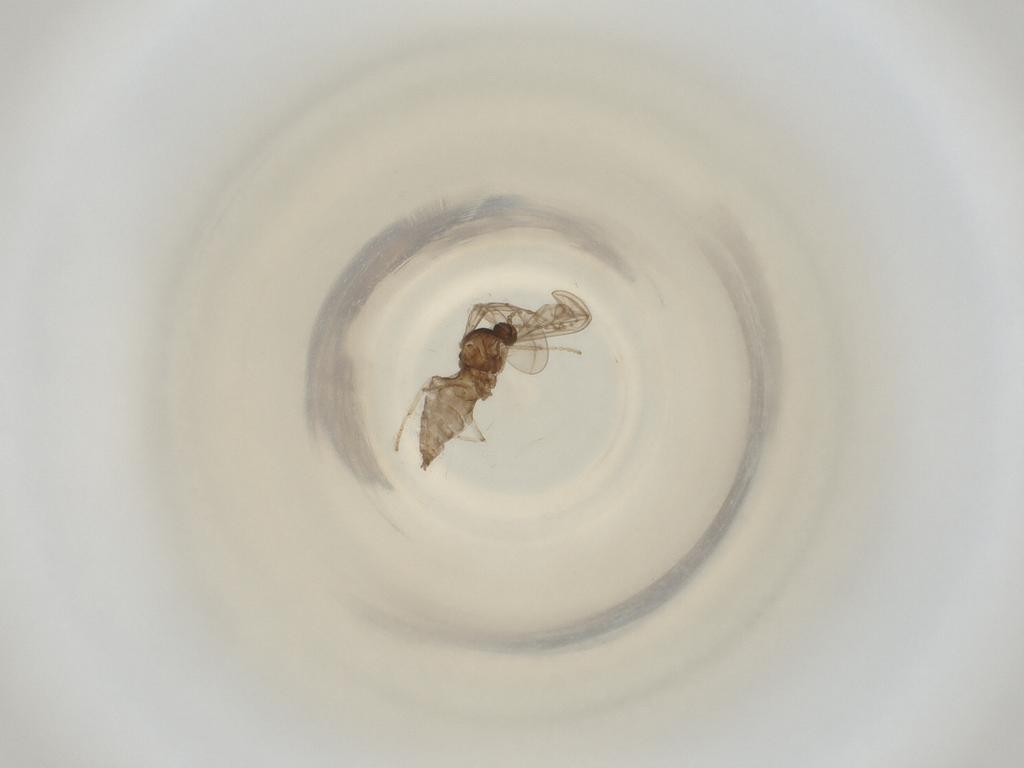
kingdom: Animalia
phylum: Arthropoda
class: Insecta
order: Diptera
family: Cecidomyiidae
